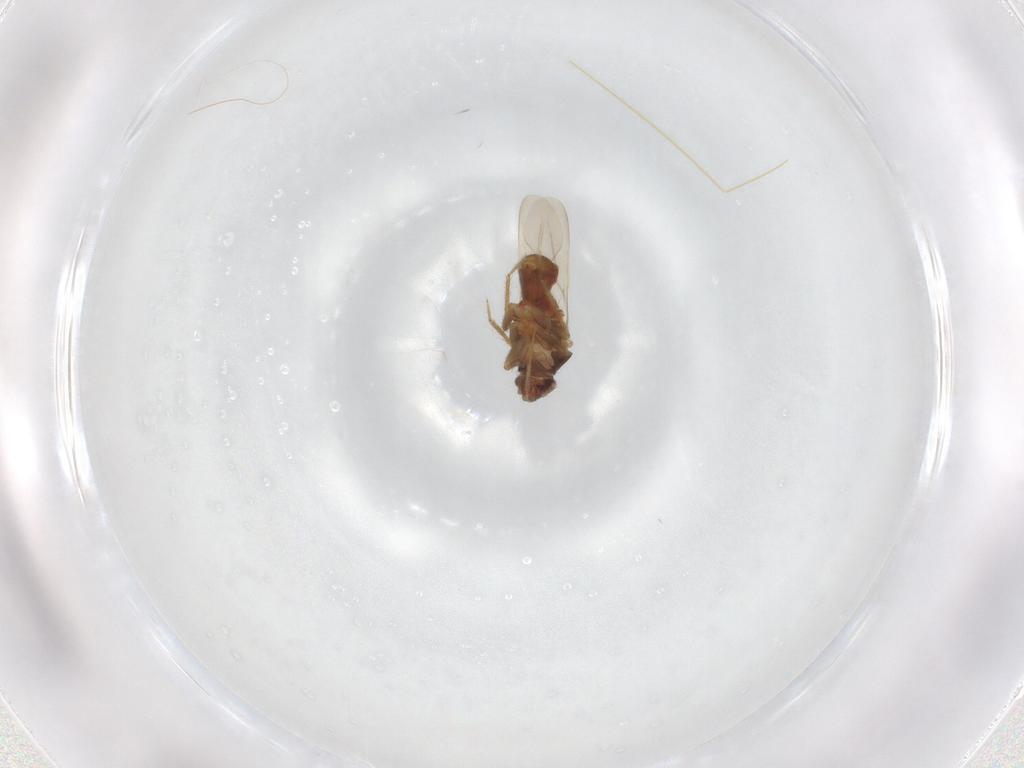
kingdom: Animalia
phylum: Arthropoda
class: Insecta
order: Hemiptera
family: Ceratocombidae
